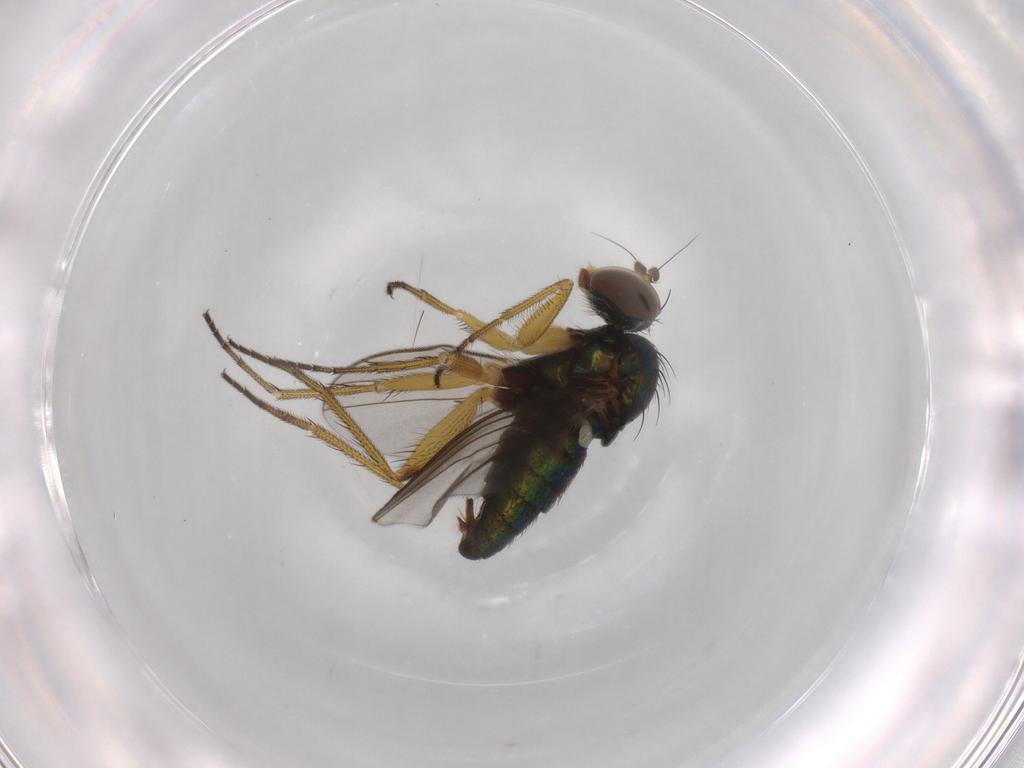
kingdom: Animalia
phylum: Arthropoda
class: Insecta
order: Diptera
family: Dolichopodidae
